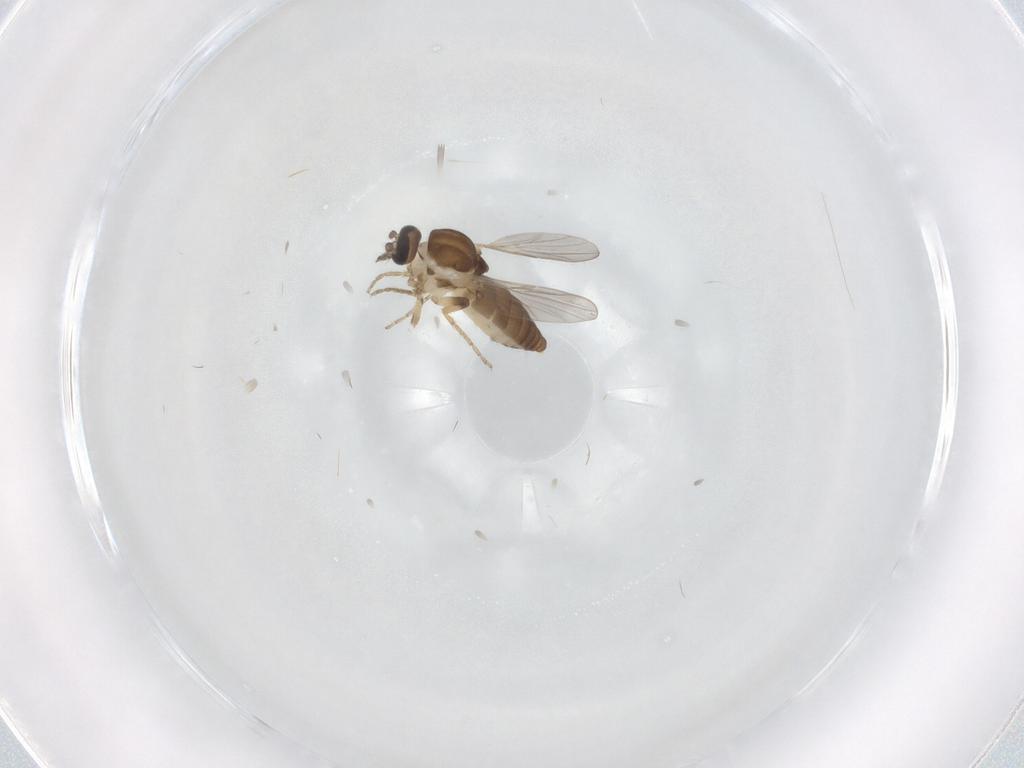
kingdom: Animalia
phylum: Arthropoda
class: Insecta
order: Diptera
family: Ceratopogonidae
